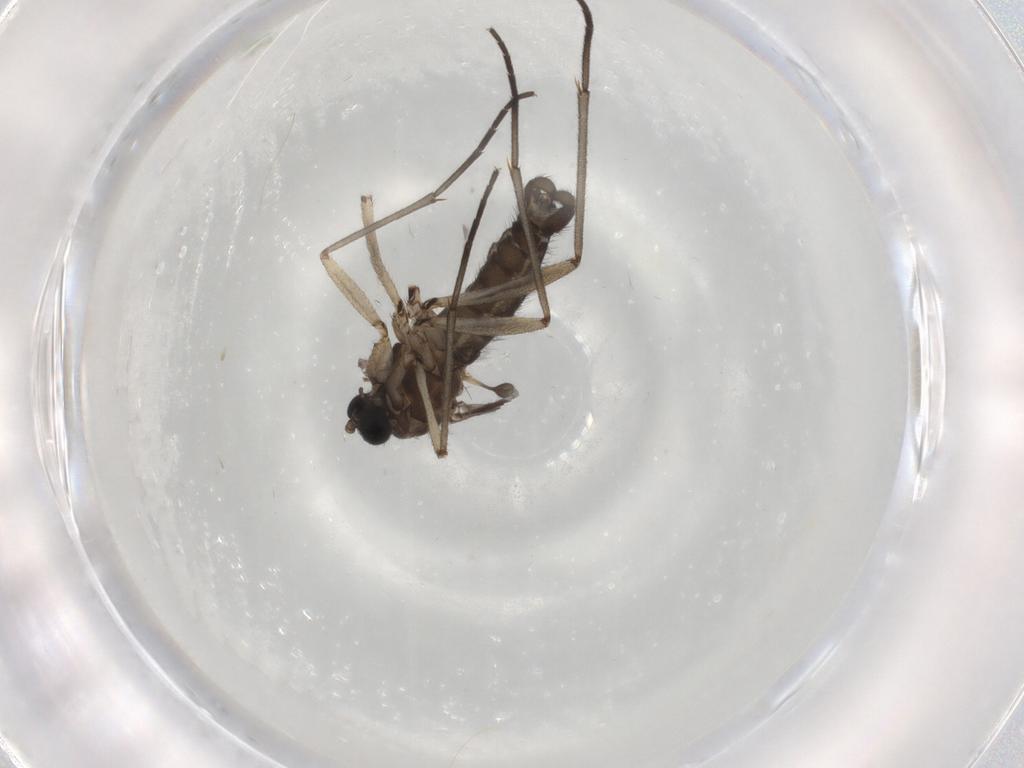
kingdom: Animalia
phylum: Arthropoda
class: Insecta
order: Diptera
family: Sciaridae
